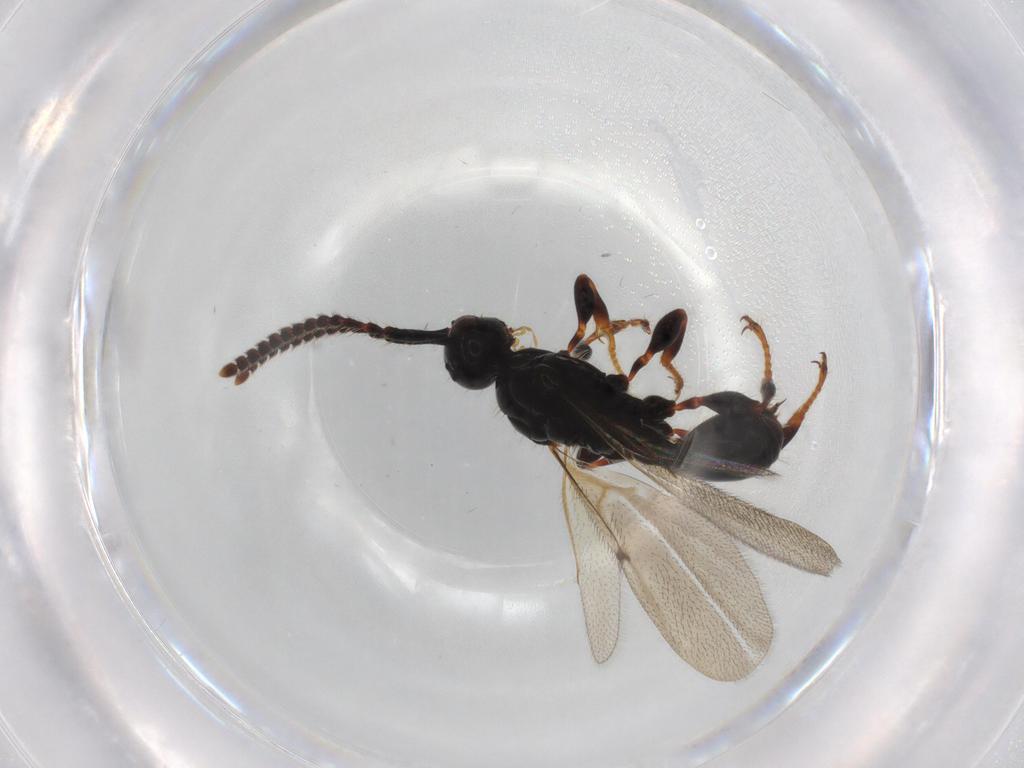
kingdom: Animalia
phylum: Arthropoda
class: Insecta
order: Hymenoptera
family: Diapriidae
